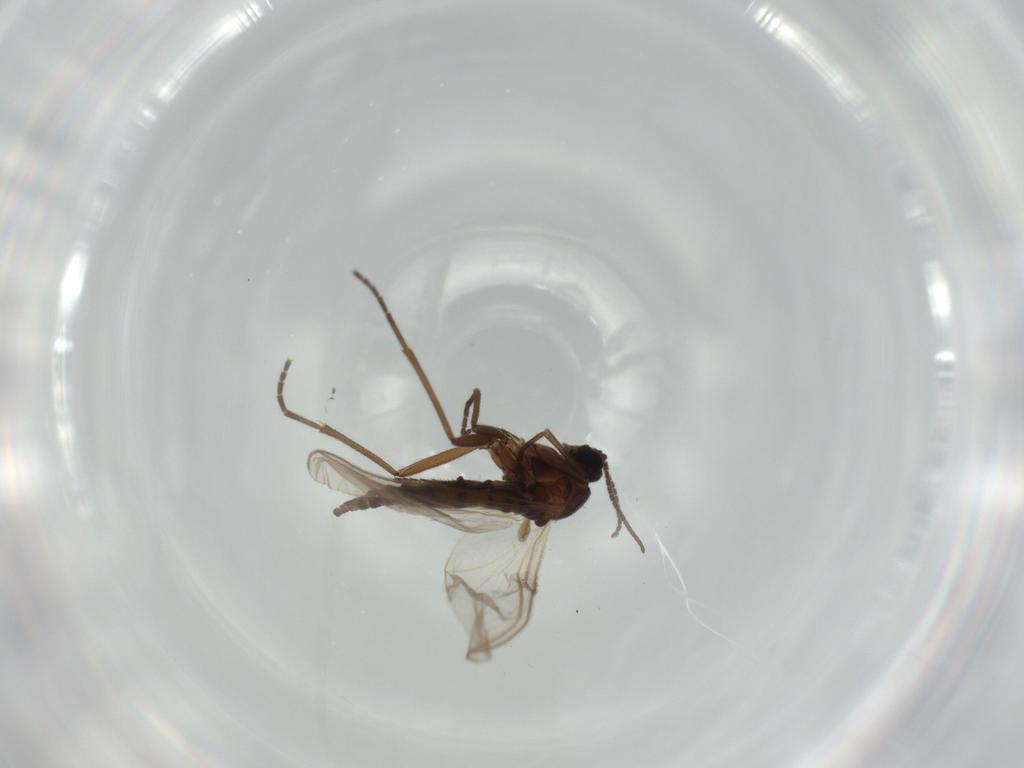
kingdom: Animalia
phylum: Arthropoda
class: Insecta
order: Diptera
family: Sciaridae
